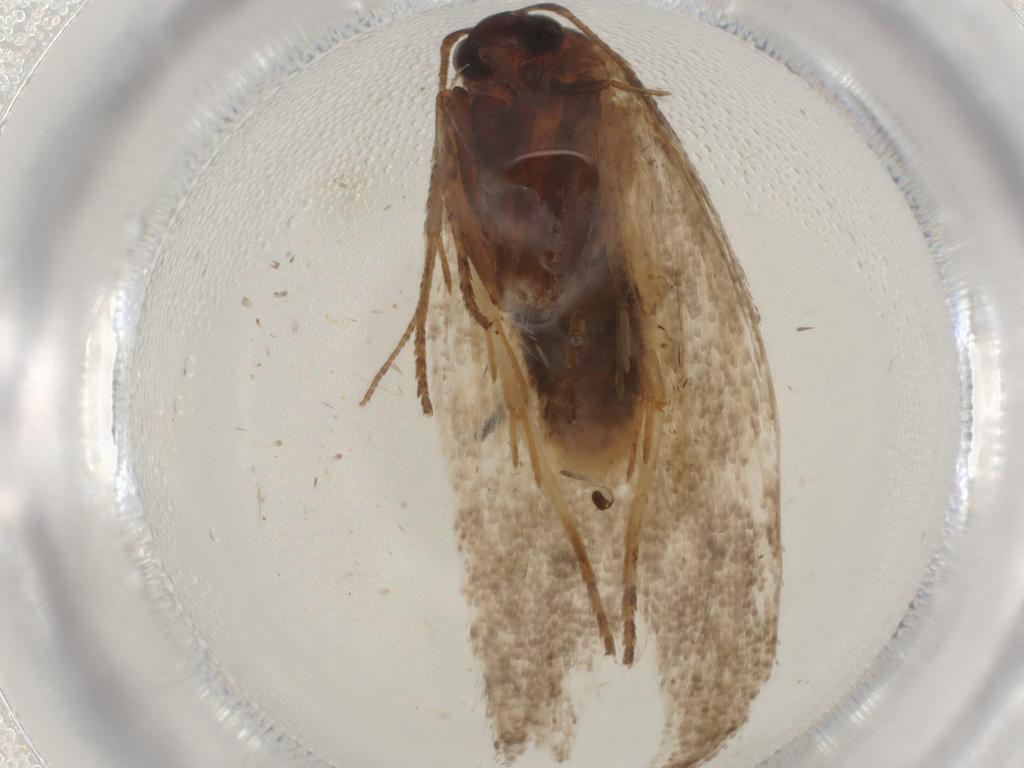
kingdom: Animalia
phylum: Arthropoda
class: Insecta
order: Lepidoptera
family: Cosmopterigidae
